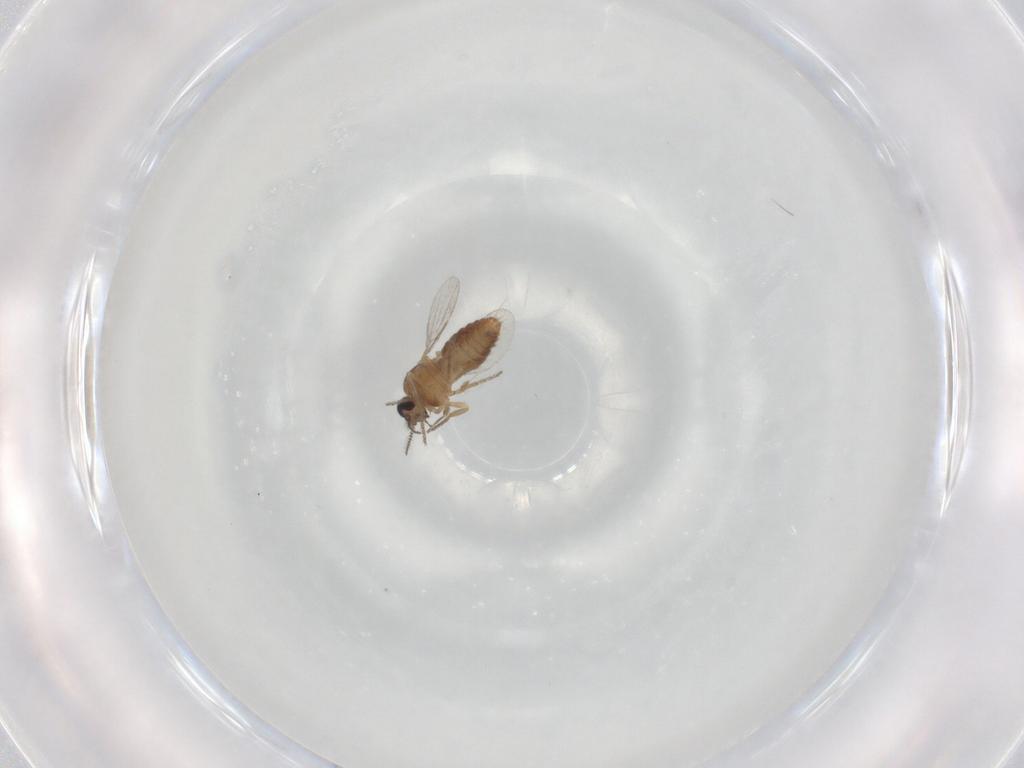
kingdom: Animalia
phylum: Arthropoda
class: Insecta
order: Diptera
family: Ceratopogonidae
